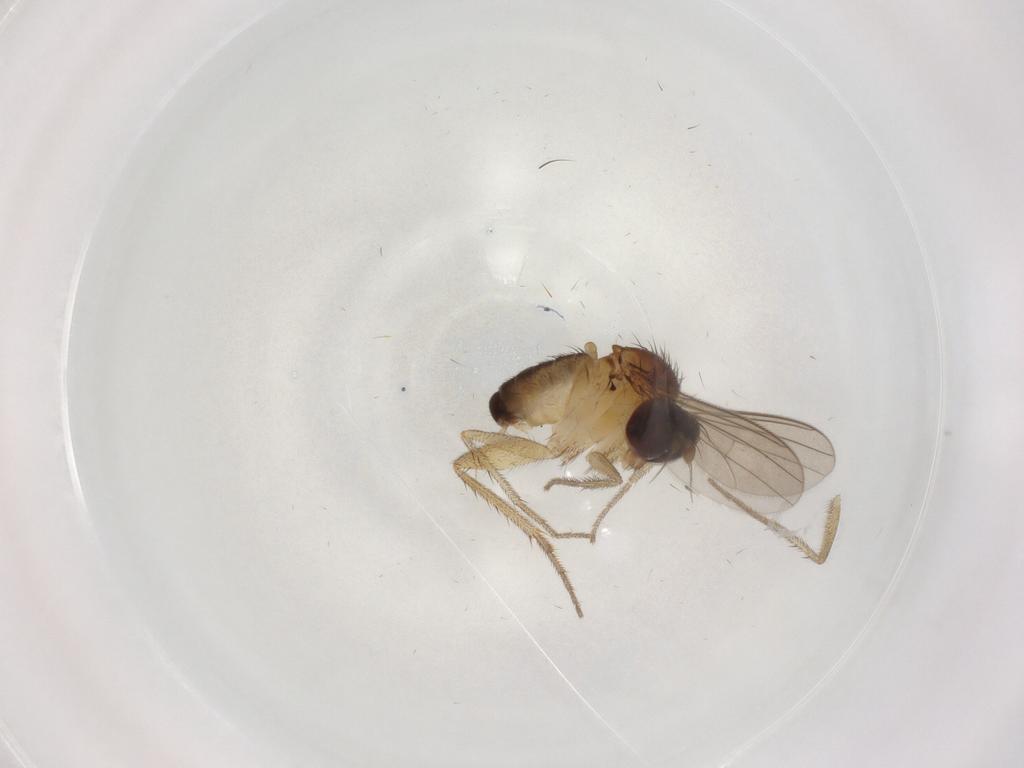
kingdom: Animalia
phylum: Arthropoda
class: Insecta
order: Diptera
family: Dolichopodidae
